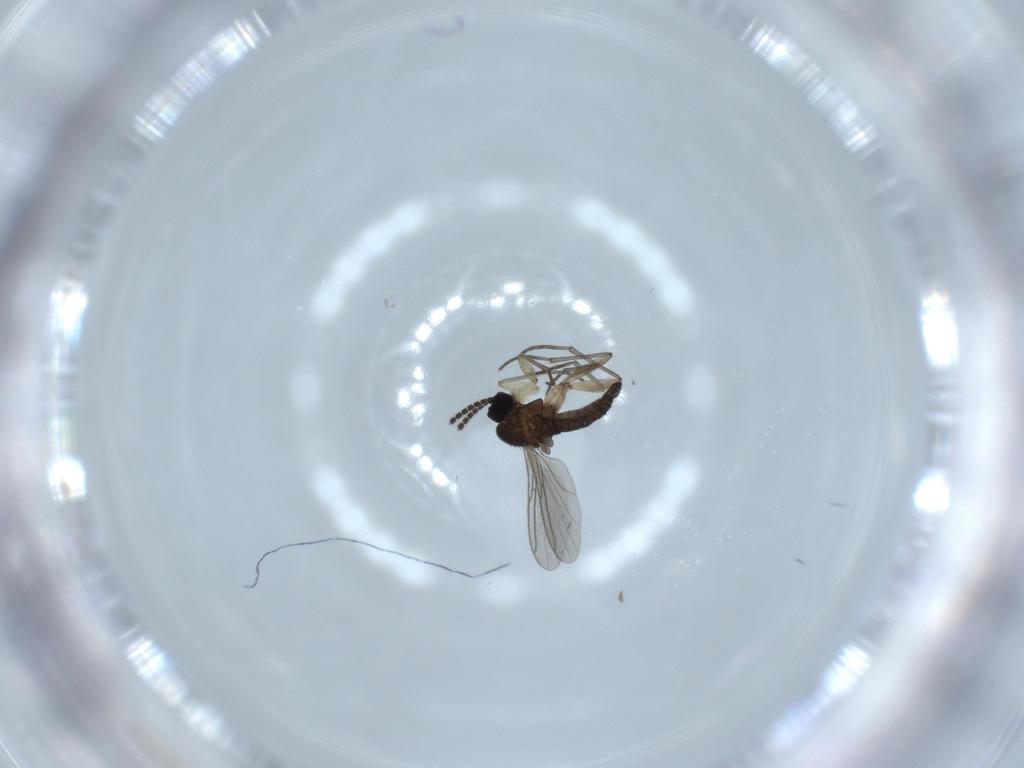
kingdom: Animalia
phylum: Arthropoda
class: Insecta
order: Diptera
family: Sciaridae
